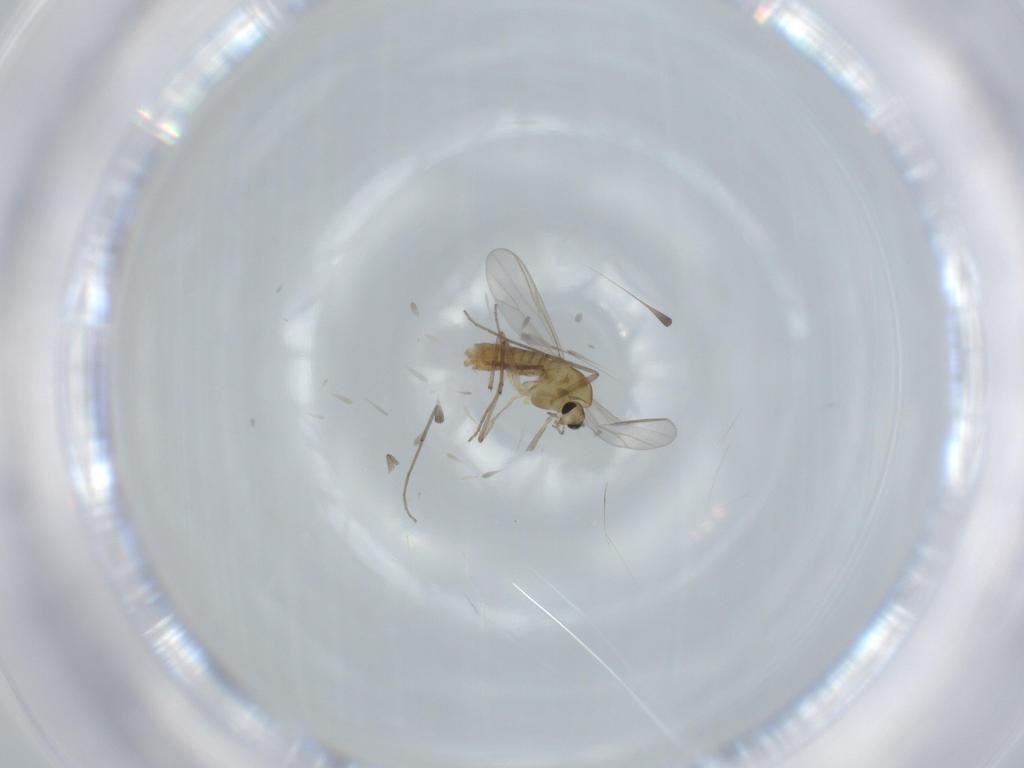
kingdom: Animalia
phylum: Arthropoda
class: Insecta
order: Diptera
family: Chironomidae
